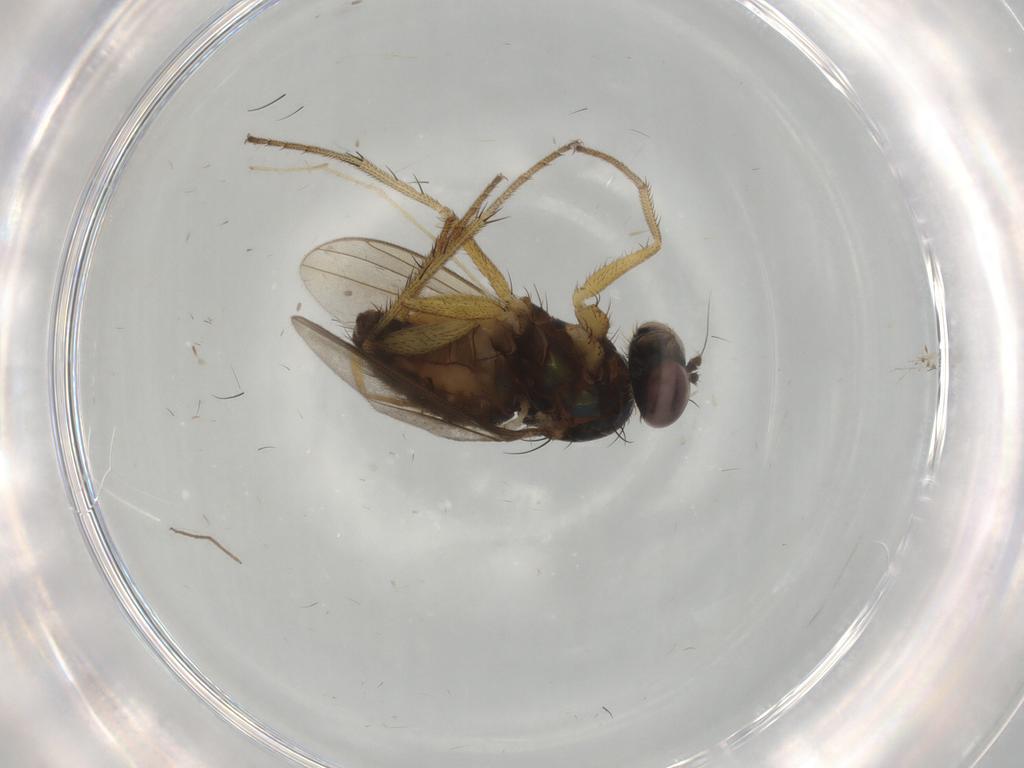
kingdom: Animalia
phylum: Arthropoda
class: Insecta
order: Diptera
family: Dolichopodidae
